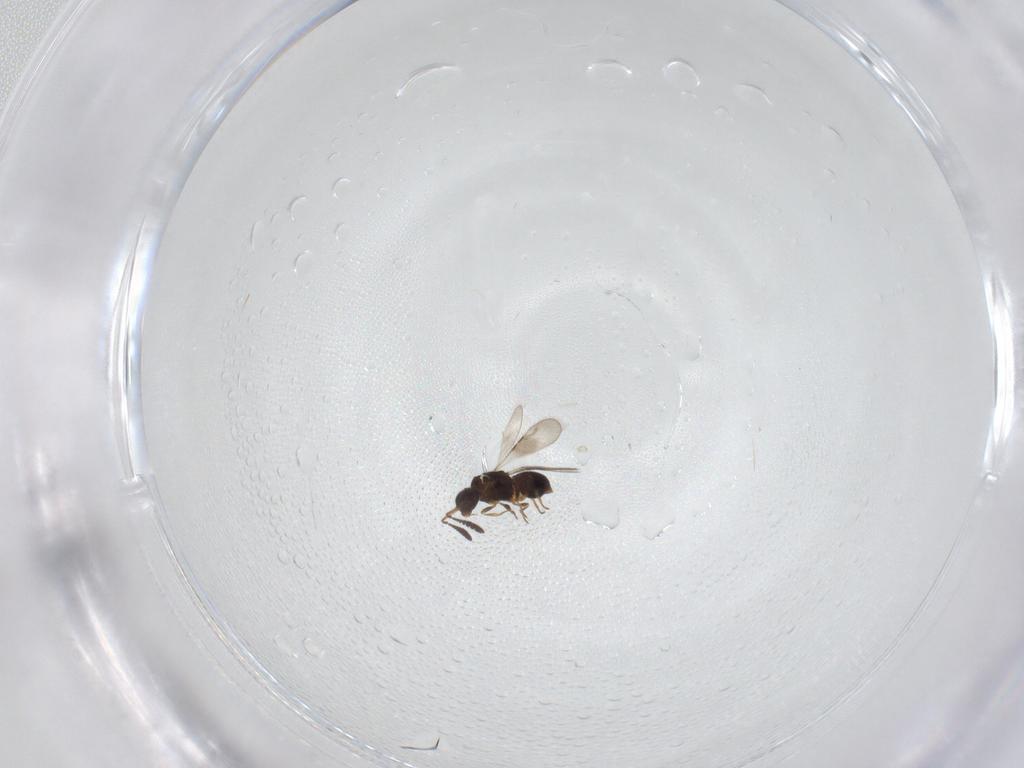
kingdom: Animalia
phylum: Arthropoda
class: Insecta
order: Hymenoptera
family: Ceraphronidae
